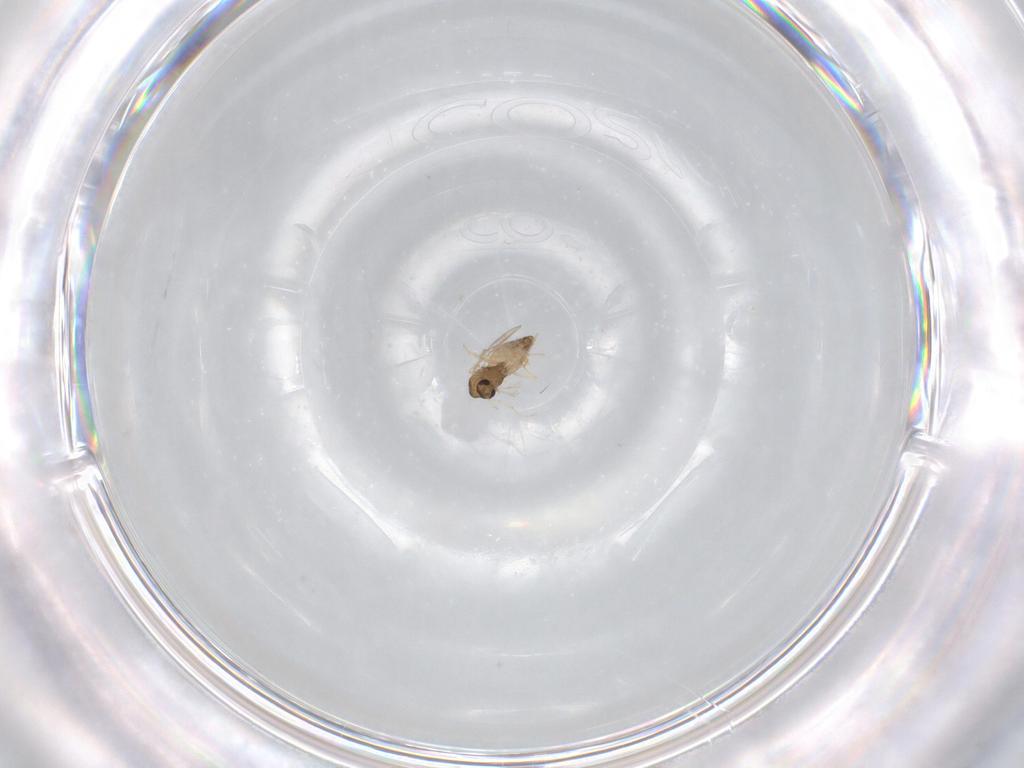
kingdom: Animalia
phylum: Arthropoda
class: Insecta
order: Diptera
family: Chironomidae
